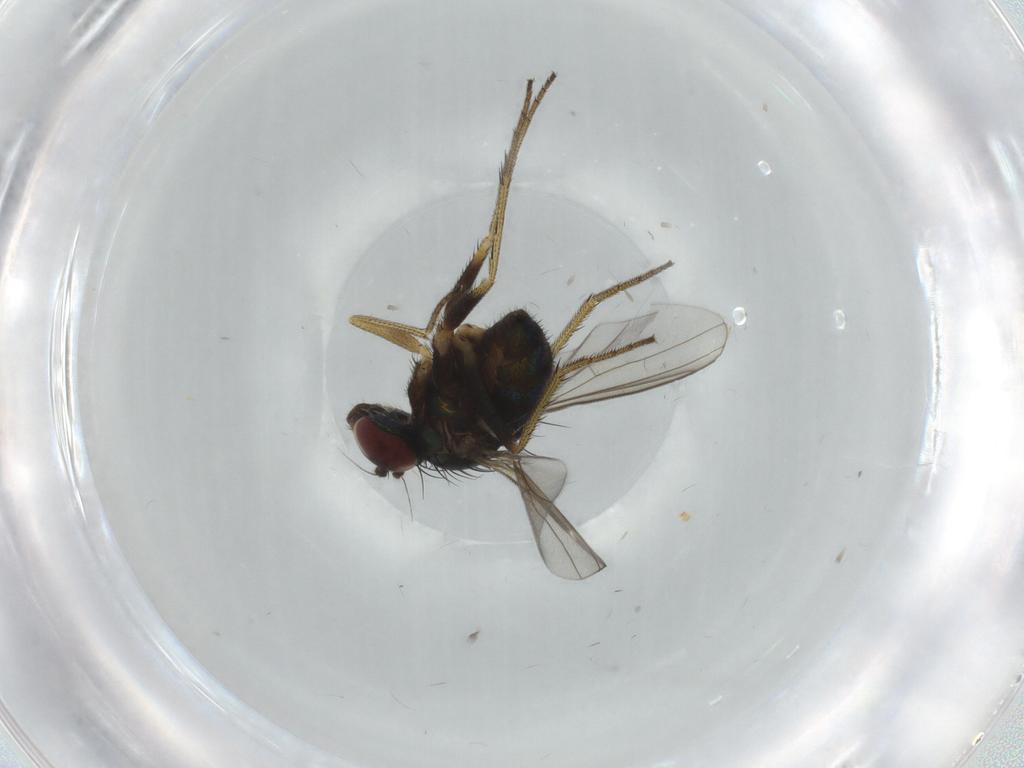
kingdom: Animalia
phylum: Arthropoda
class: Insecta
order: Diptera
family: Dolichopodidae
